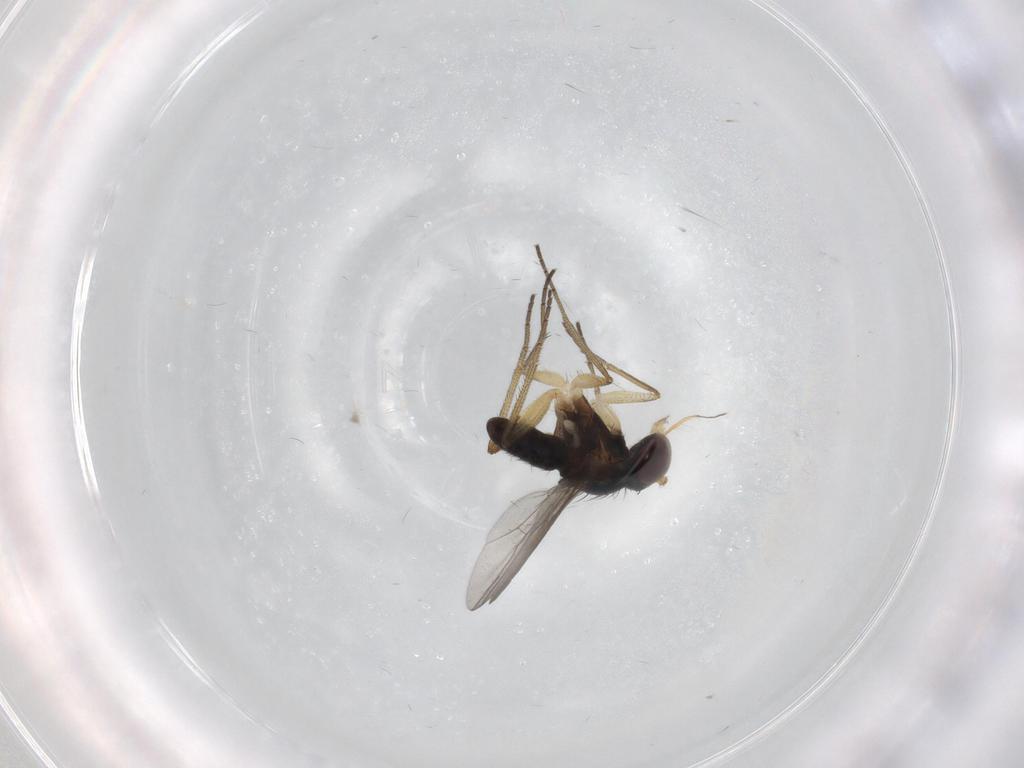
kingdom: Animalia
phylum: Arthropoda
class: Insecta
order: Diptera
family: Dolichopodidae
